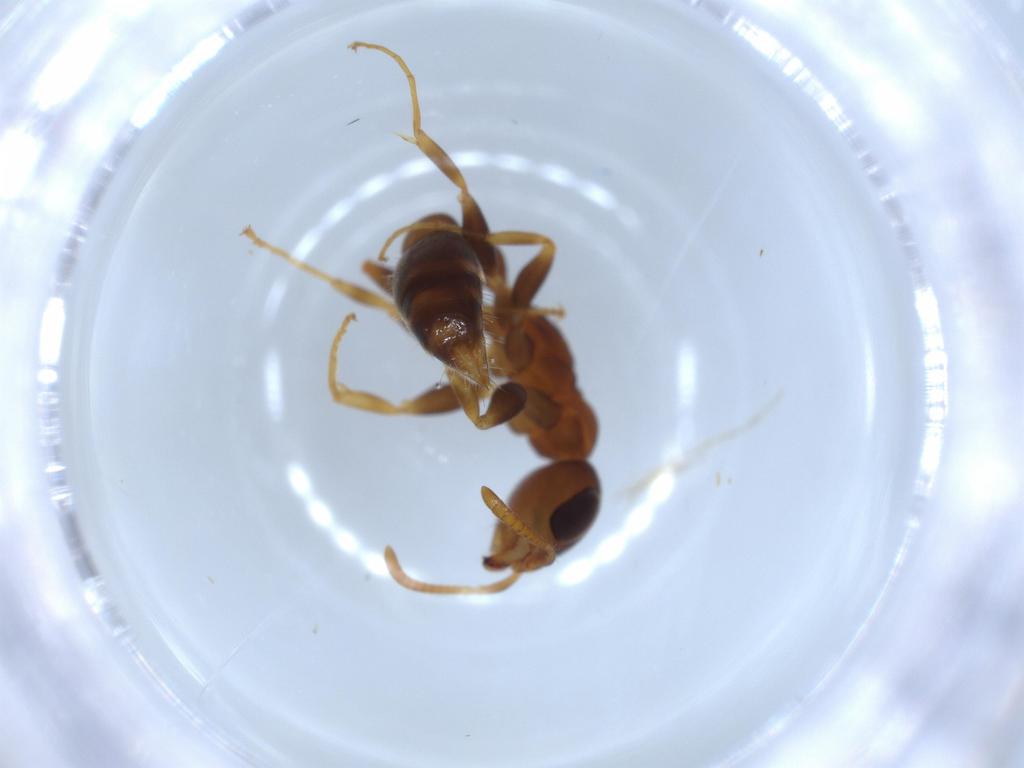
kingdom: Animalia
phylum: Arthropoda
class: Insecta
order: Hymenoptera
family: Formicidae
